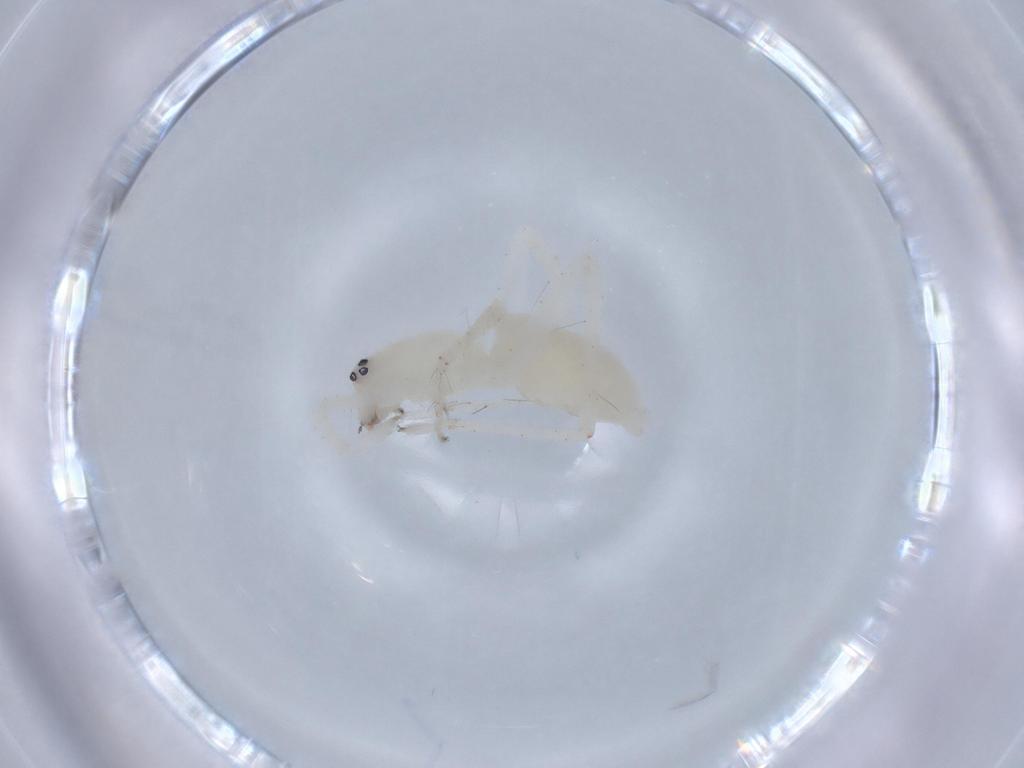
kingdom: Animalia
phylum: Arthropoda
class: Arachnida
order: Araneae
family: Anyphaenidae
